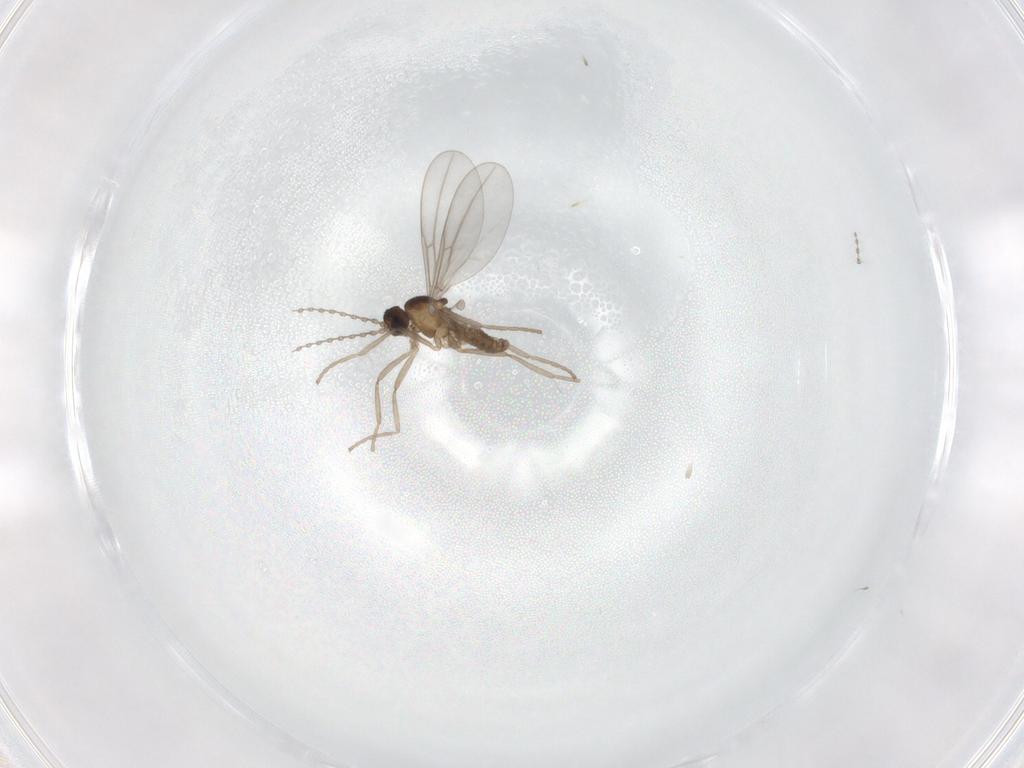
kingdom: Animalia
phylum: Arthropoda
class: Insecta
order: Diptera
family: Cecidomyiidae
